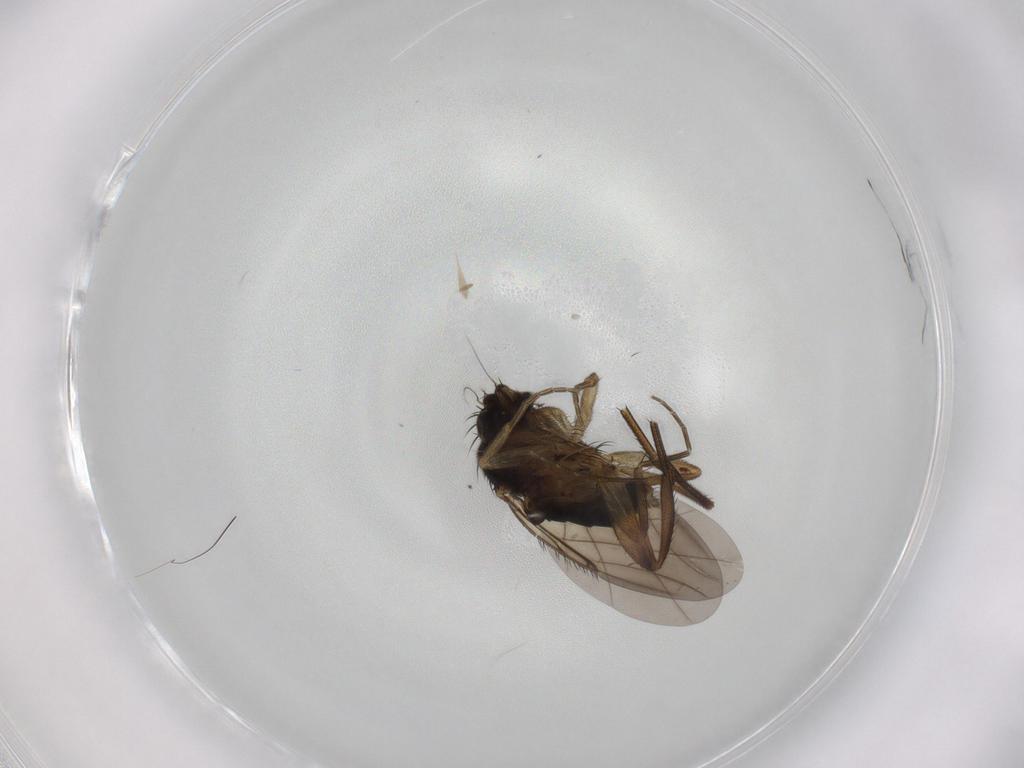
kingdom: Animalia
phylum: Arthropoda
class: Insecta
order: Diptera
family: Phoridae
